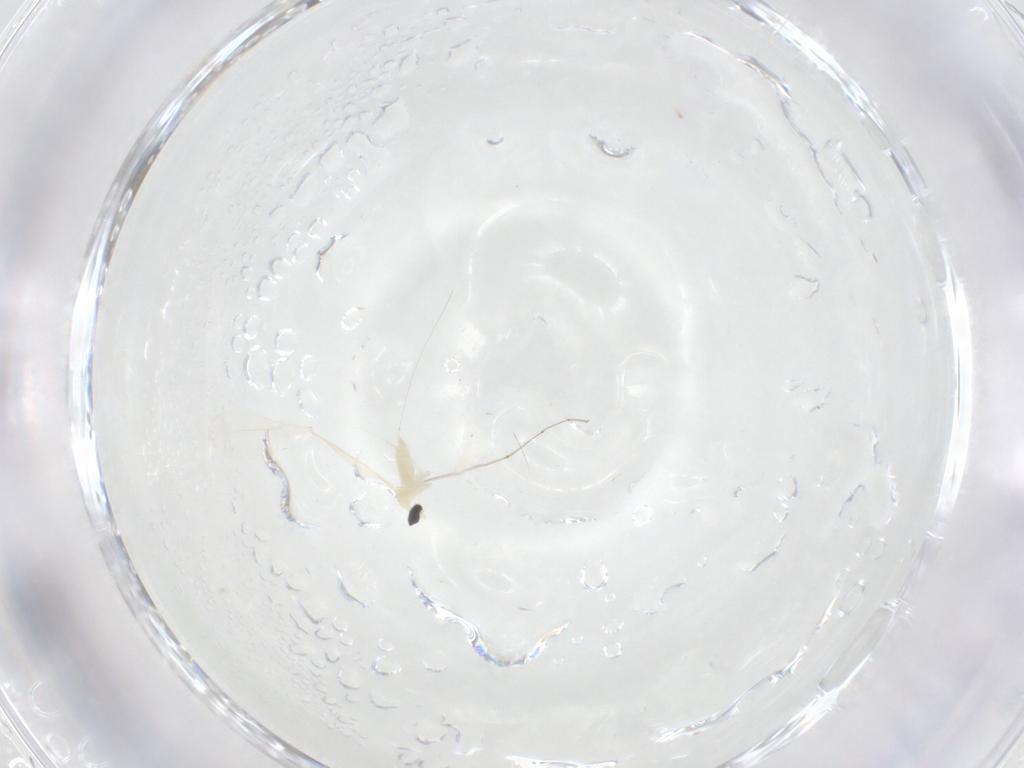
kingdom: Animalia
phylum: Arthropoda
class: Insecta
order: Diptera
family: Cecidomyiidae
